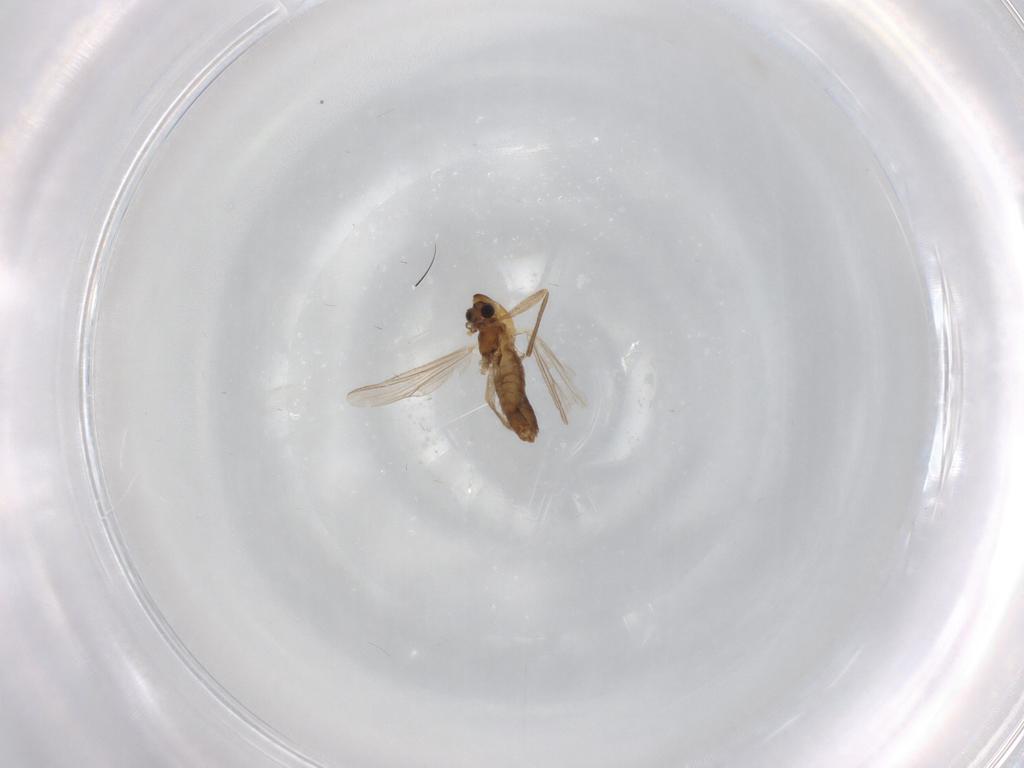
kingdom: Animalia
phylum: Arthropoda
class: Insecta
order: Diptera
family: Chironomidae
